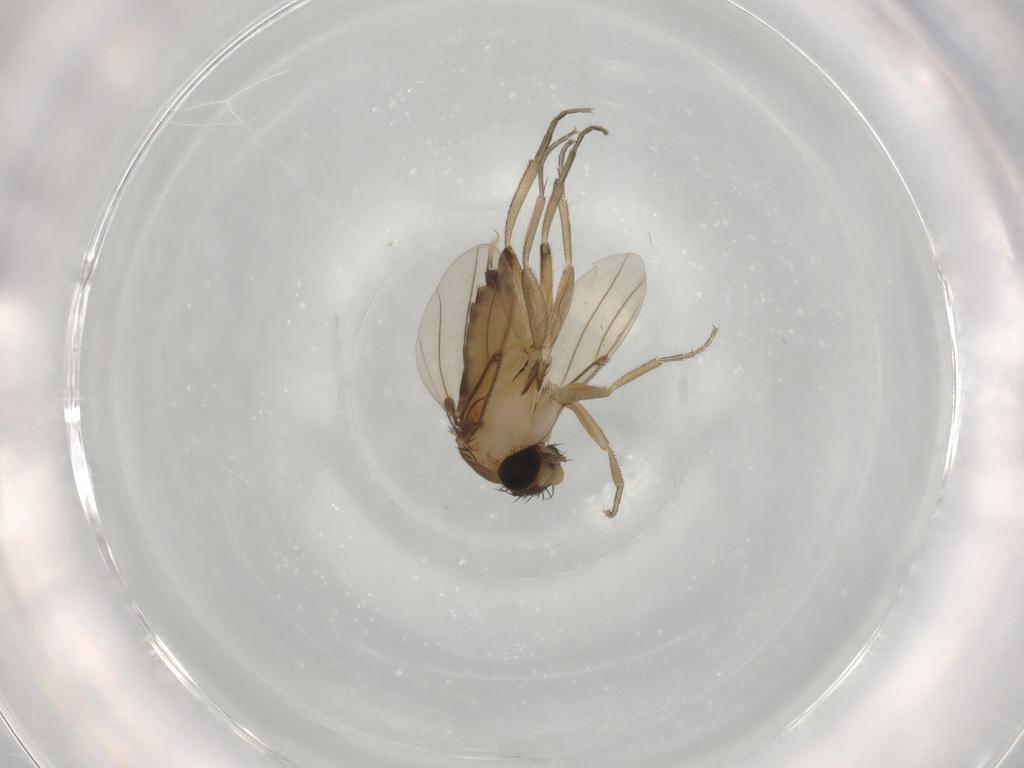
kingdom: Animalia
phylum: Arthropoda
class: Insecta
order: Diptera
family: Phoridae
